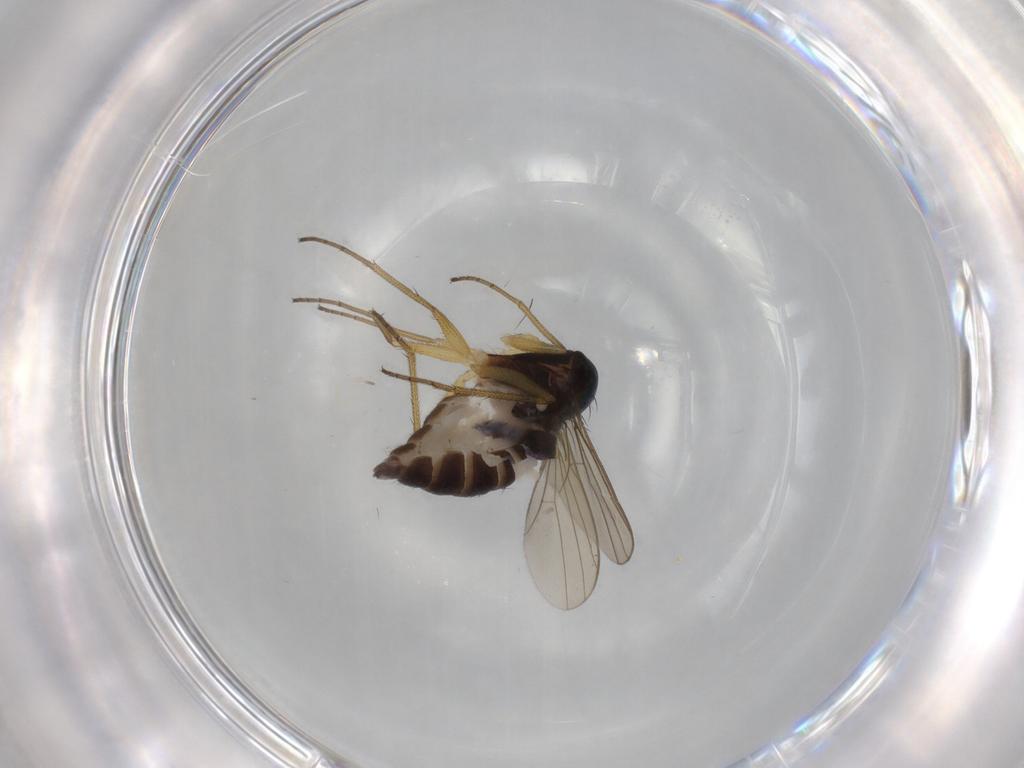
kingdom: Animalia
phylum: Arthropoda
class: Insecta
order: Diptera
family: Dolichopodidae
